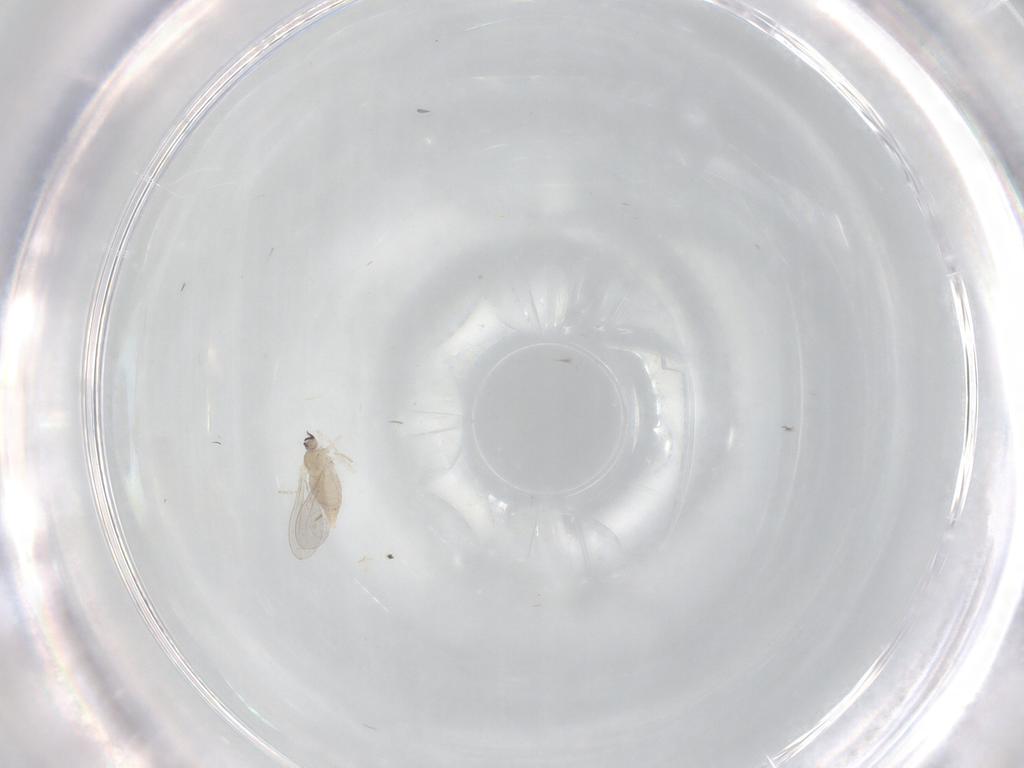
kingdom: Animalia
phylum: Arthropoda
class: Insecta
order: Diptera
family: Cecidomyiidae
